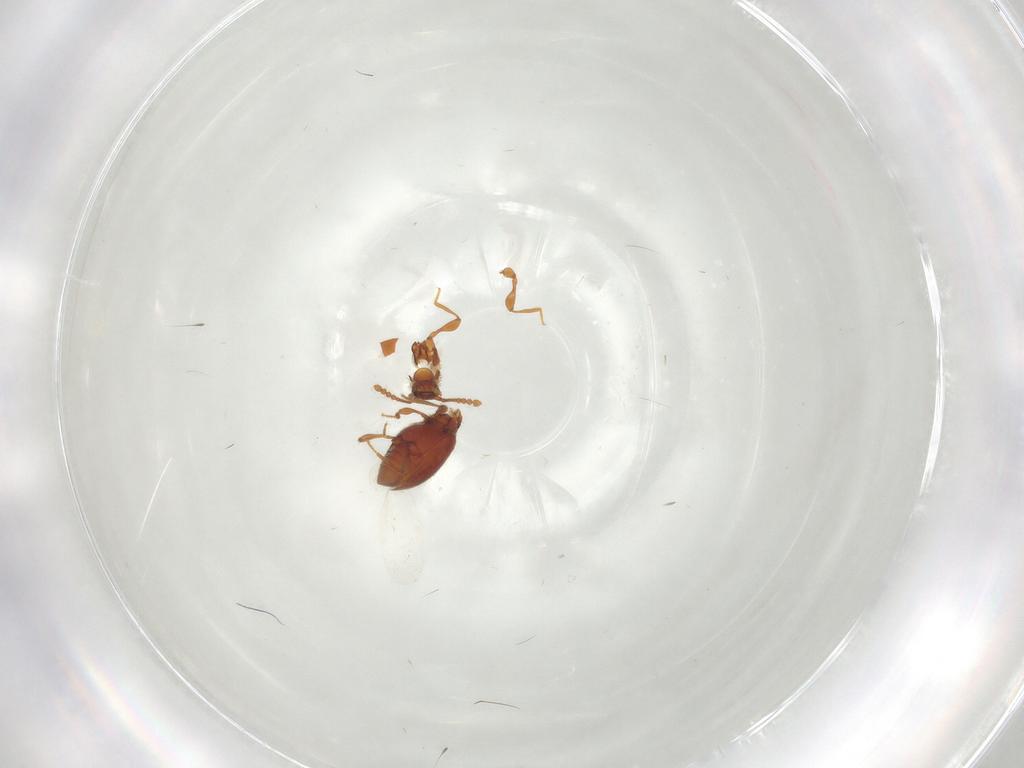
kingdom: Animalia
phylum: Arthropoda
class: Insecta
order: Coleoptera
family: Staphylinidae
